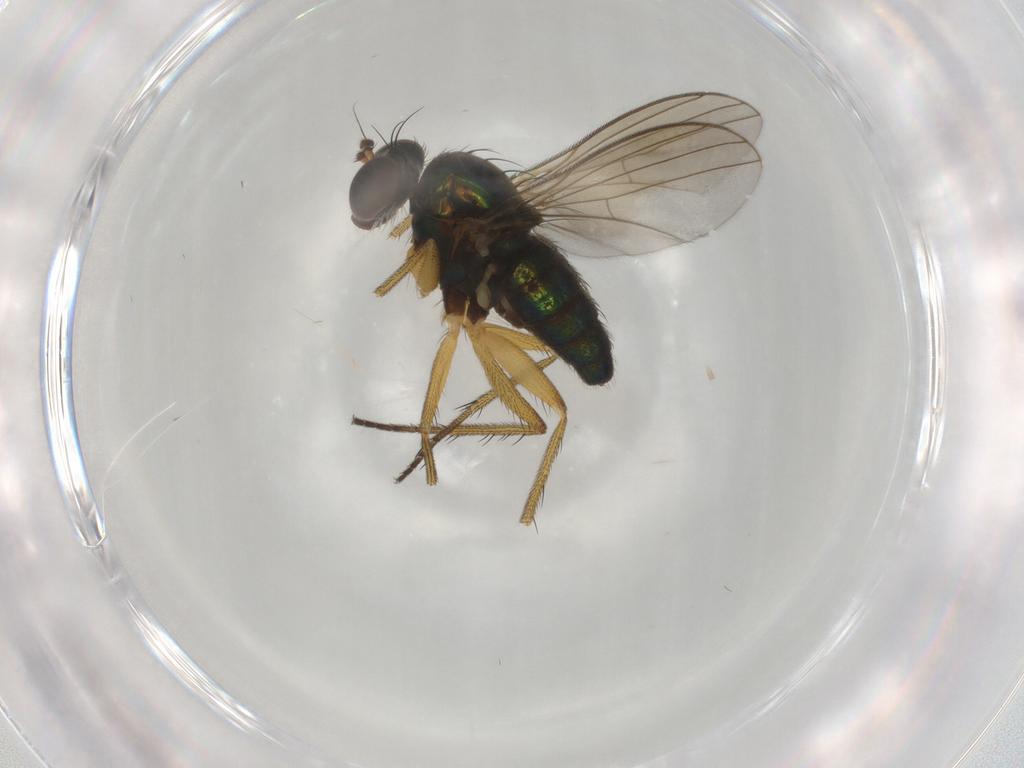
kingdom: Animalia
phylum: Arthropoda
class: Insecta
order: Diptera
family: Dolichopodidae
